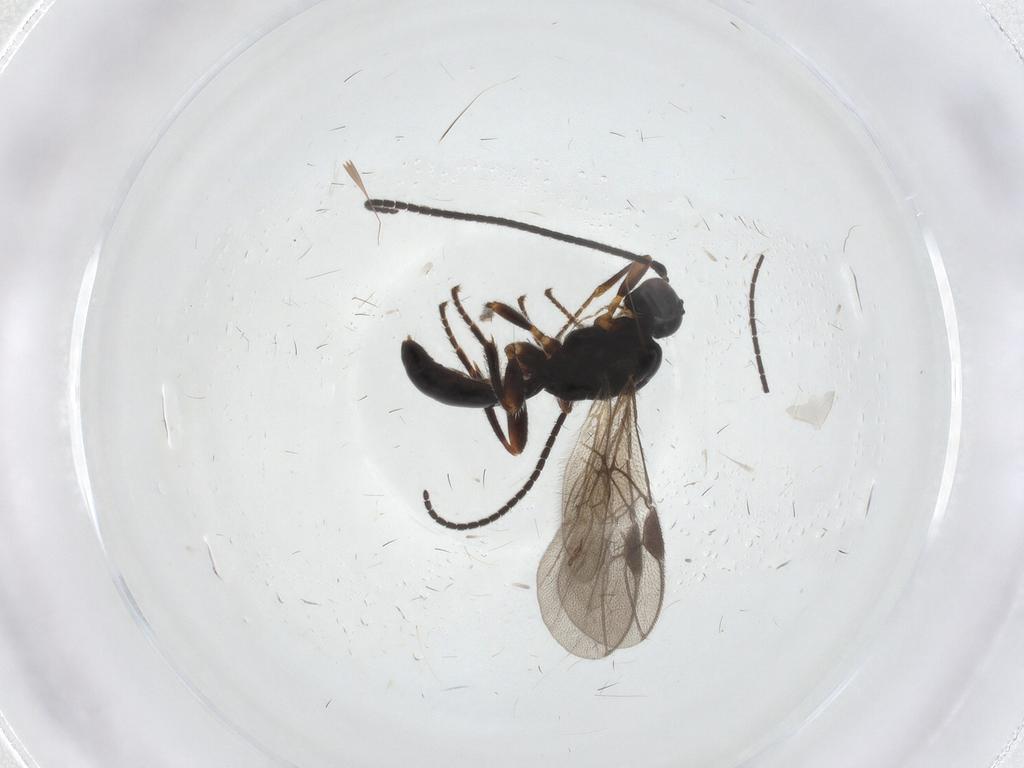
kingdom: Animalia
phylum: Arthropoda
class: Insecta
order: Hymenoptera
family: Braconidae
